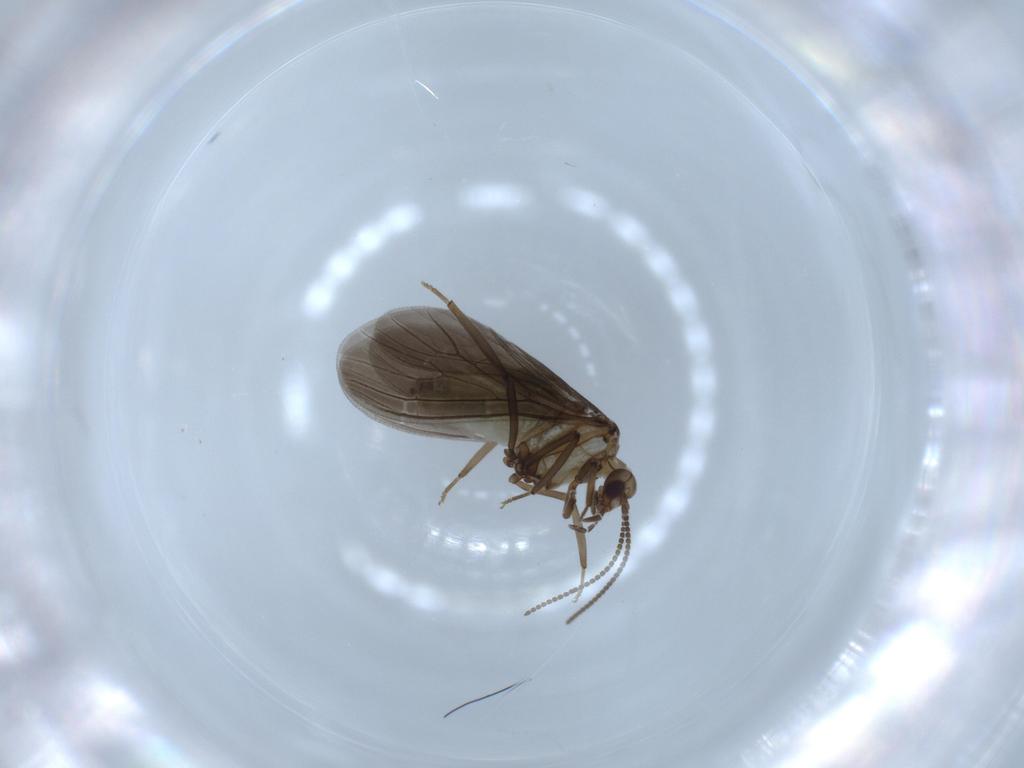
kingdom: Animalia
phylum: Arthropoda
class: Insecta
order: Neuroptera
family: Coniopterygidae
